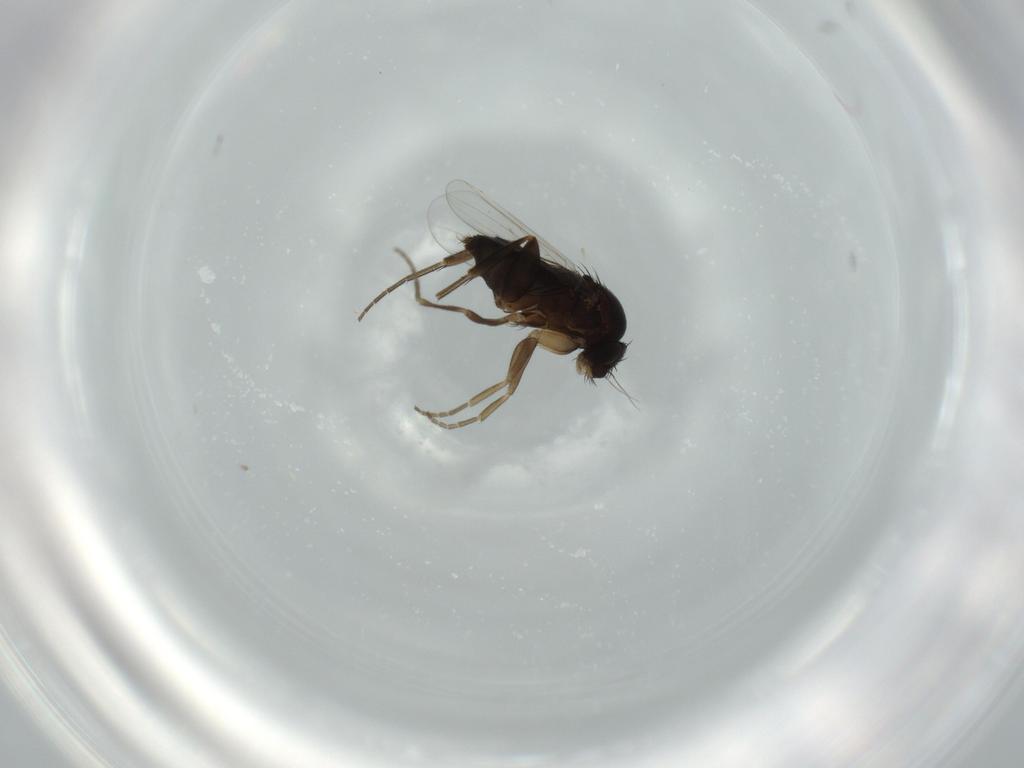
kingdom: Animalia
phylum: Arthropoda
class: Insecta
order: Diptera
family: Phoridae
